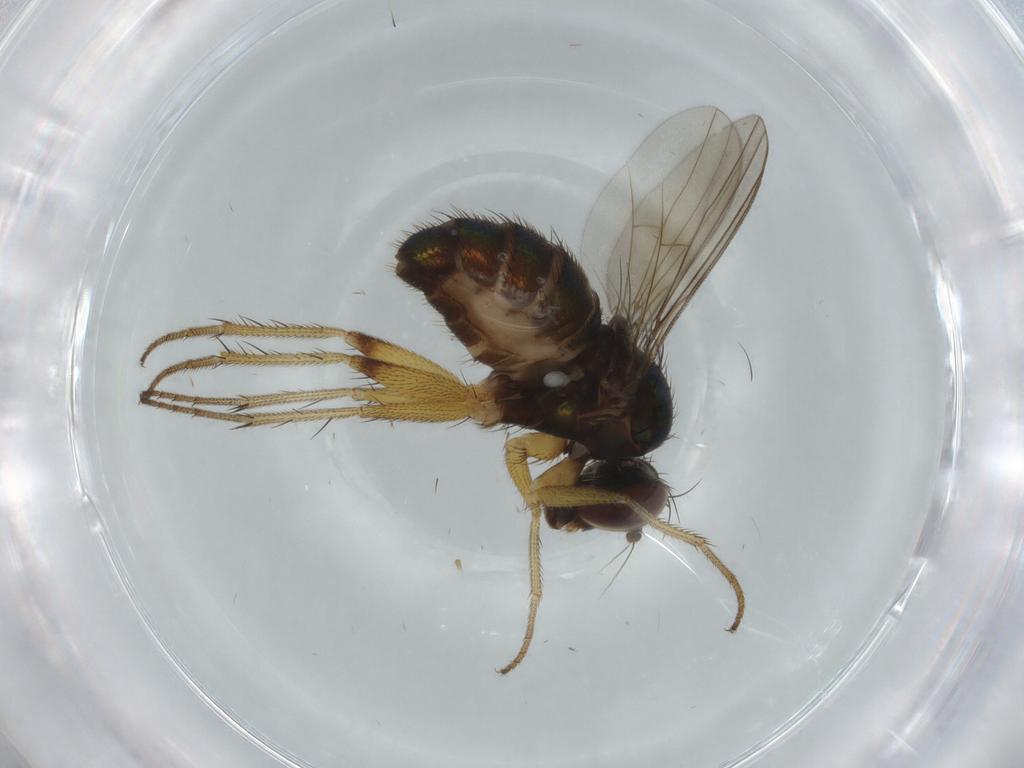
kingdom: Animalia
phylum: Arthropoda
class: Insecta
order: Diptera
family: Dolichopodidae
